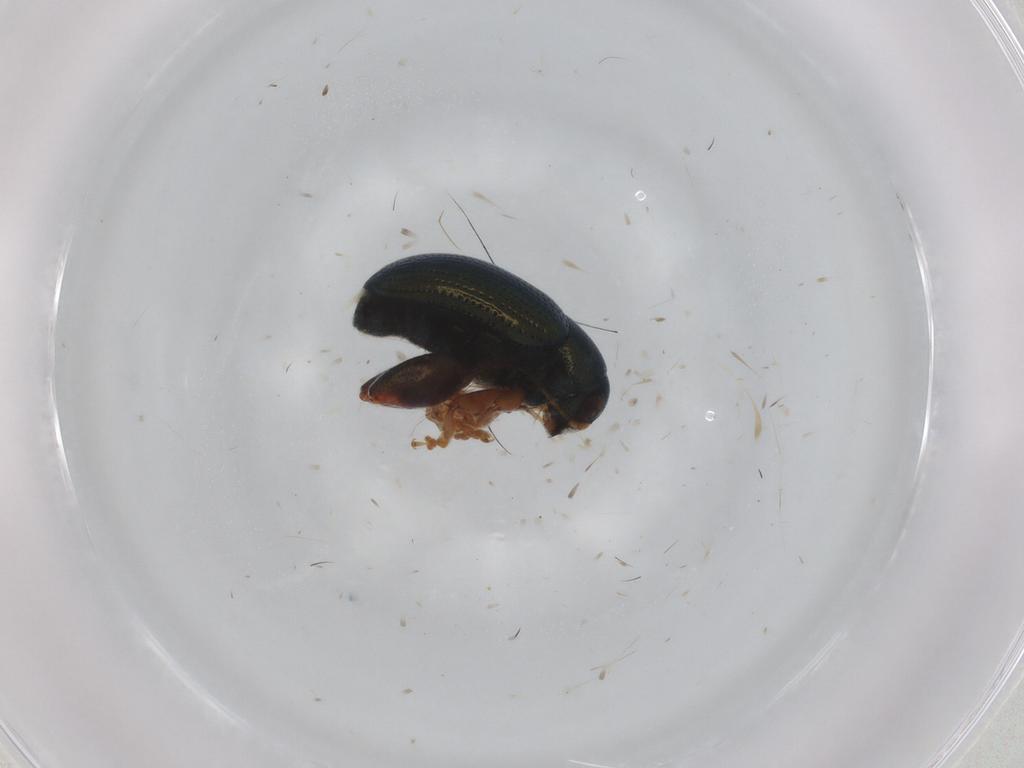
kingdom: Animalia
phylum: Arthropoda
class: Insecta
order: Coleoptera
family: Chrysomelidae
